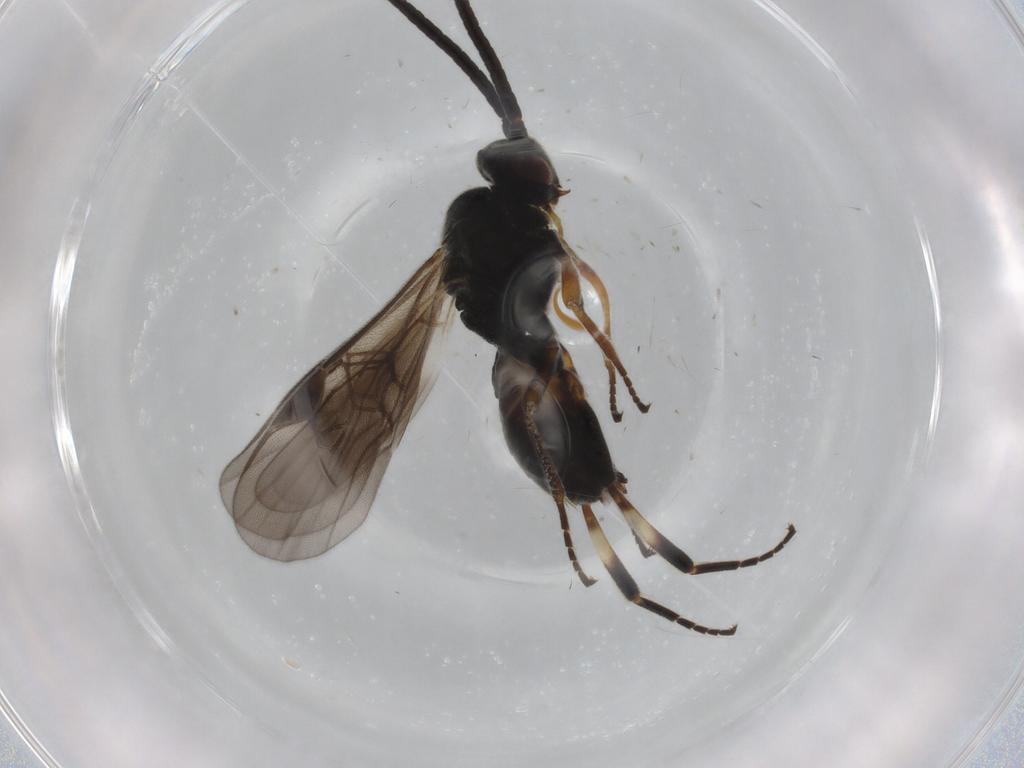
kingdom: Animalia
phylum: Arthropoda
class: Insecta
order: Hymenoptera
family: Braconidae
